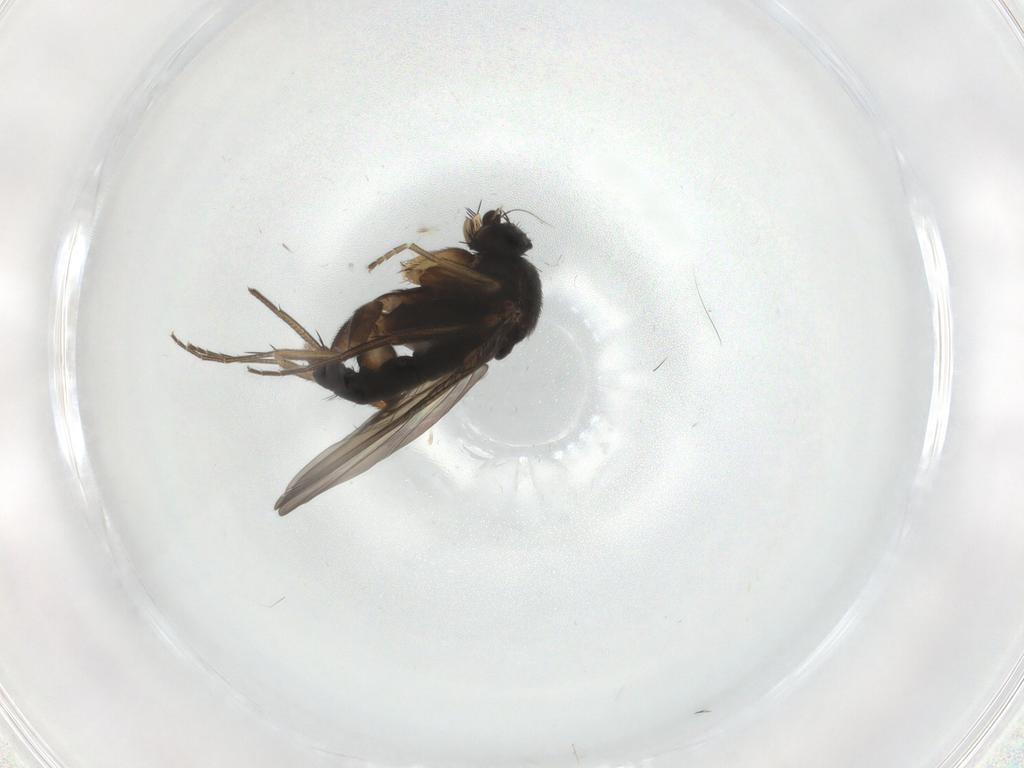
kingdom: Animalia
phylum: Arthropoda
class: Insecta
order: Diptera
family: Phoridae
